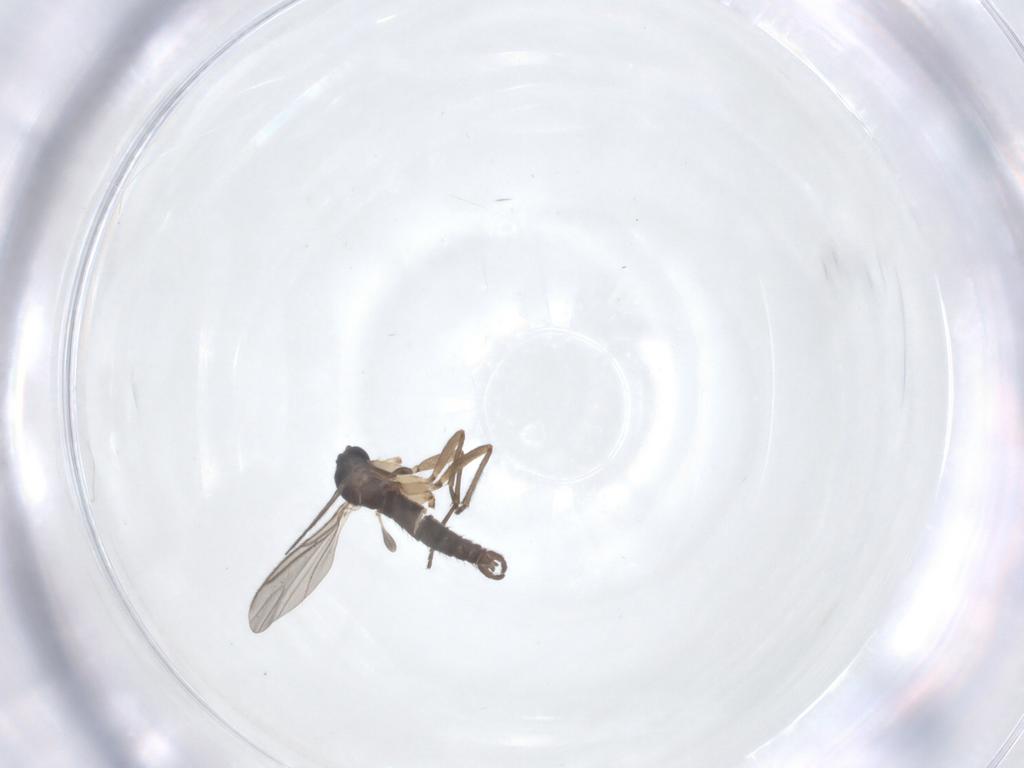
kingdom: Animalia
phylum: Arthropoda
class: Insecta
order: Diptera
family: Sciaridae
